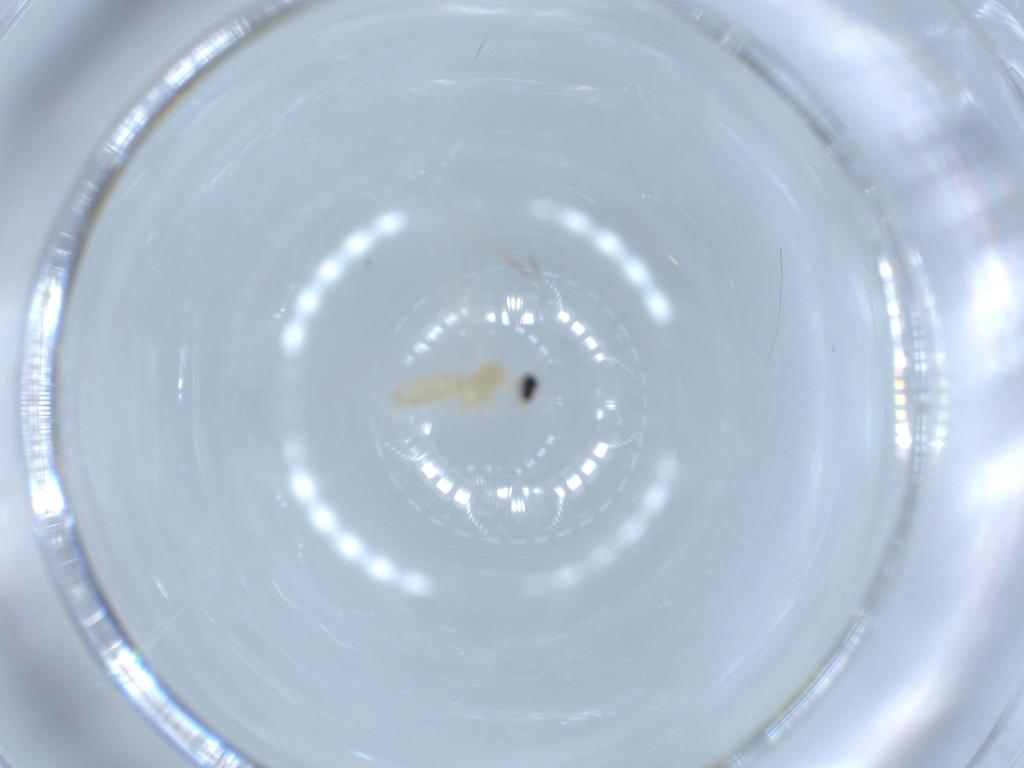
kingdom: Animalia
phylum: Arthropoda
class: Insecta
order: Diptera
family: Cecidomyiidae
